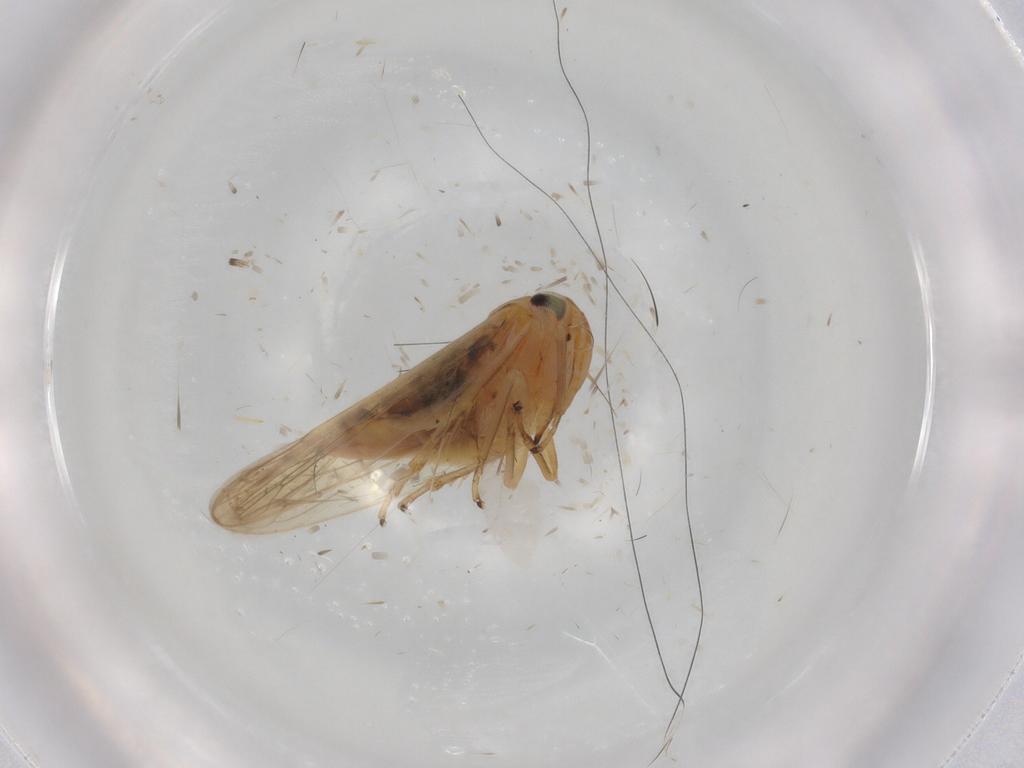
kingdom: Animalia
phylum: Arthropoda
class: Insecta
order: Hemiptera
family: Cicadellidae
